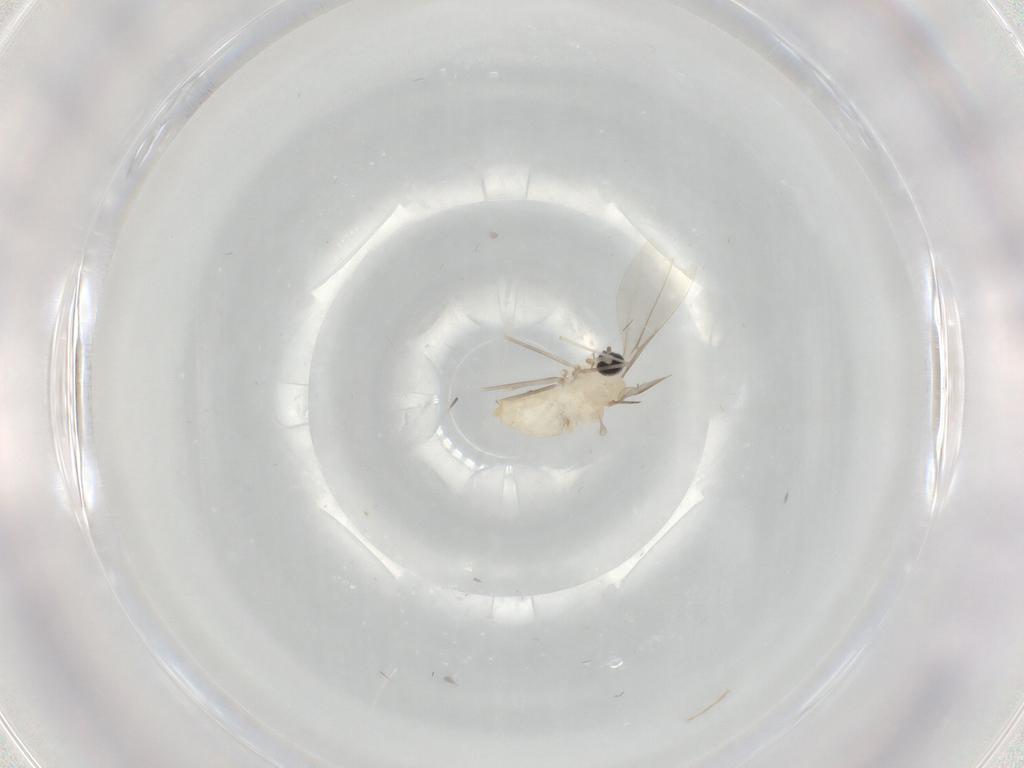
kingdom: Animalia
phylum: Arthropoda
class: Insecta
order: Diptera
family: Cecidomyiidae
